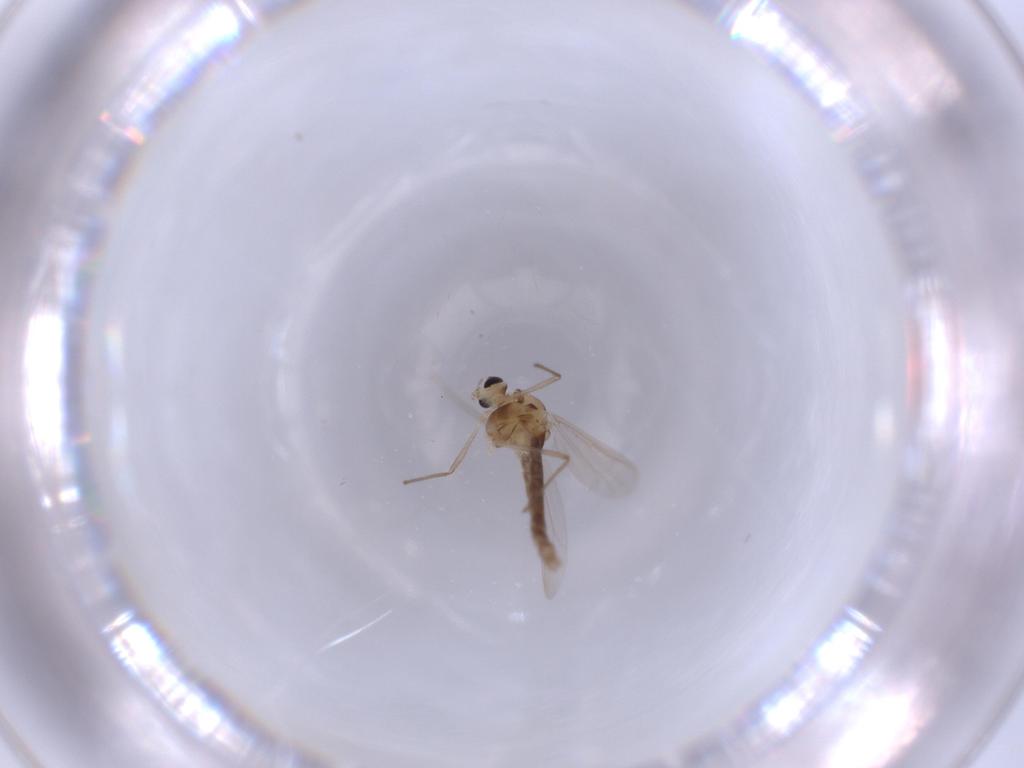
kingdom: Animalia
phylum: Arthropoda
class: Insecta
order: Diptera
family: Chironomidae
